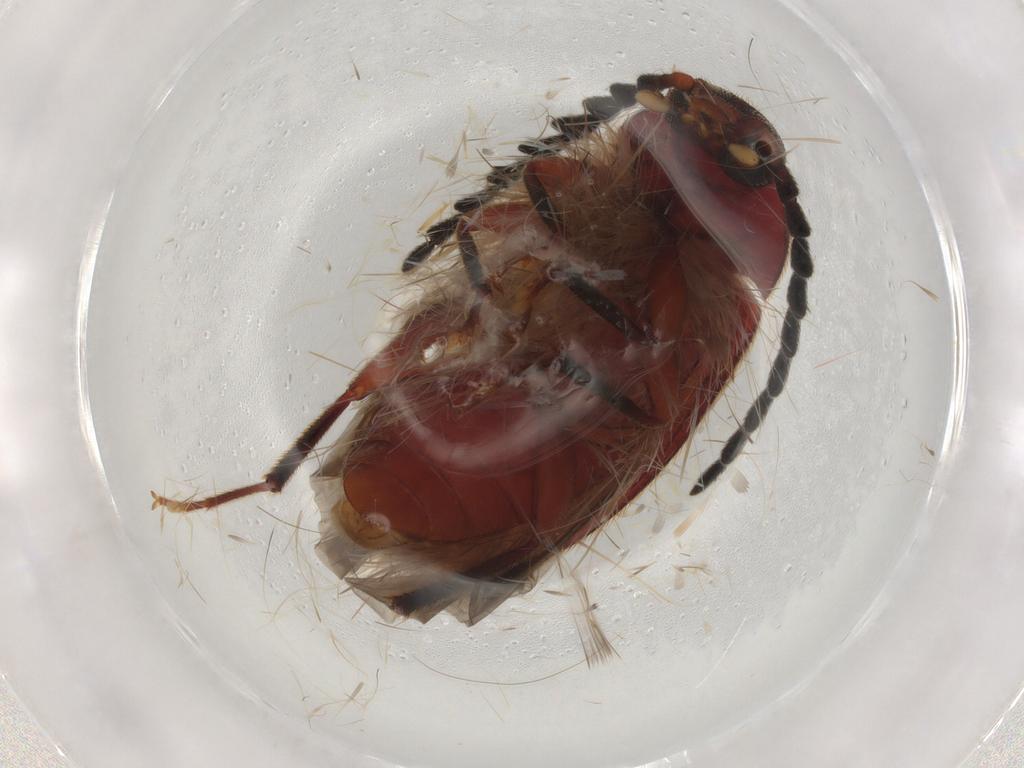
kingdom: Animalia
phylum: Arthropoda
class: Insecta
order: Coleoptera
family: Tenebrionidae
